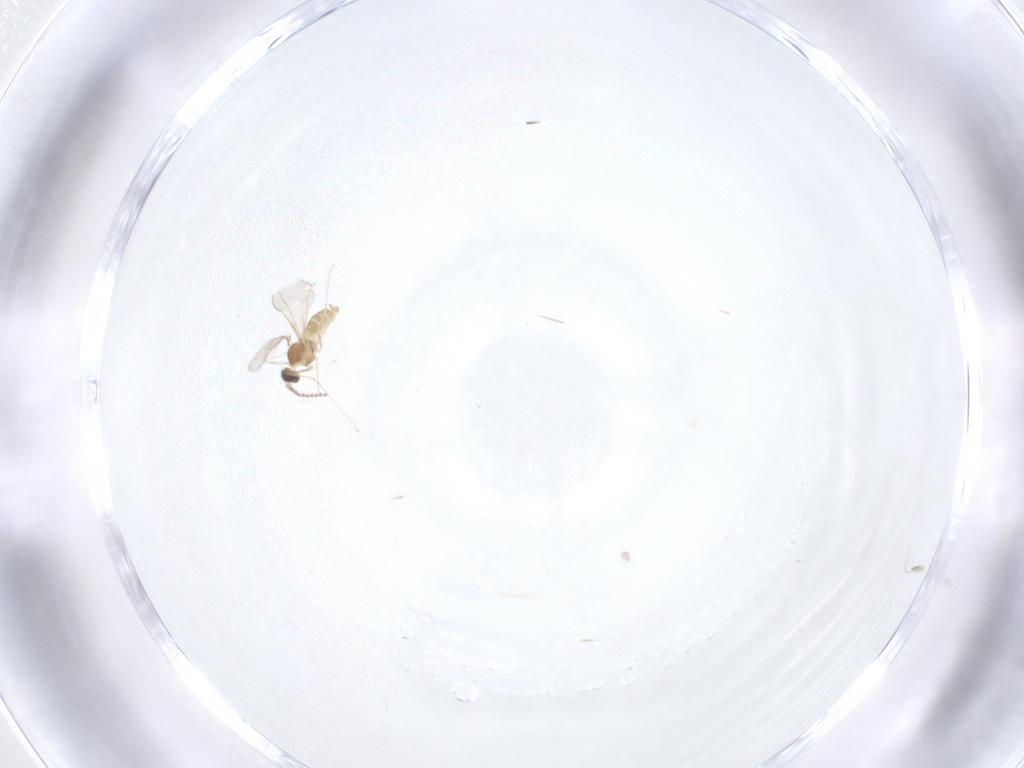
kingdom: Animalia
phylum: Arthropoda
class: Insecta
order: Diptera
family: Cecidomyiidae
